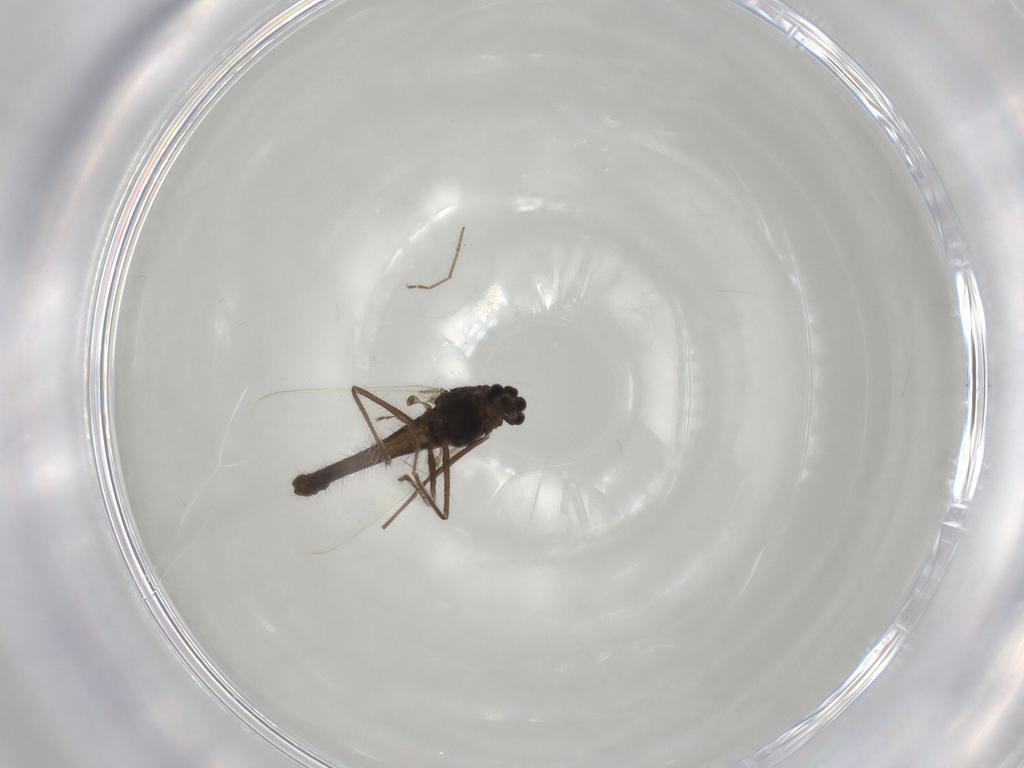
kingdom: Animalia
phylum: Arthropoda
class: Insecta
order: Diptera
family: Chironomidae
